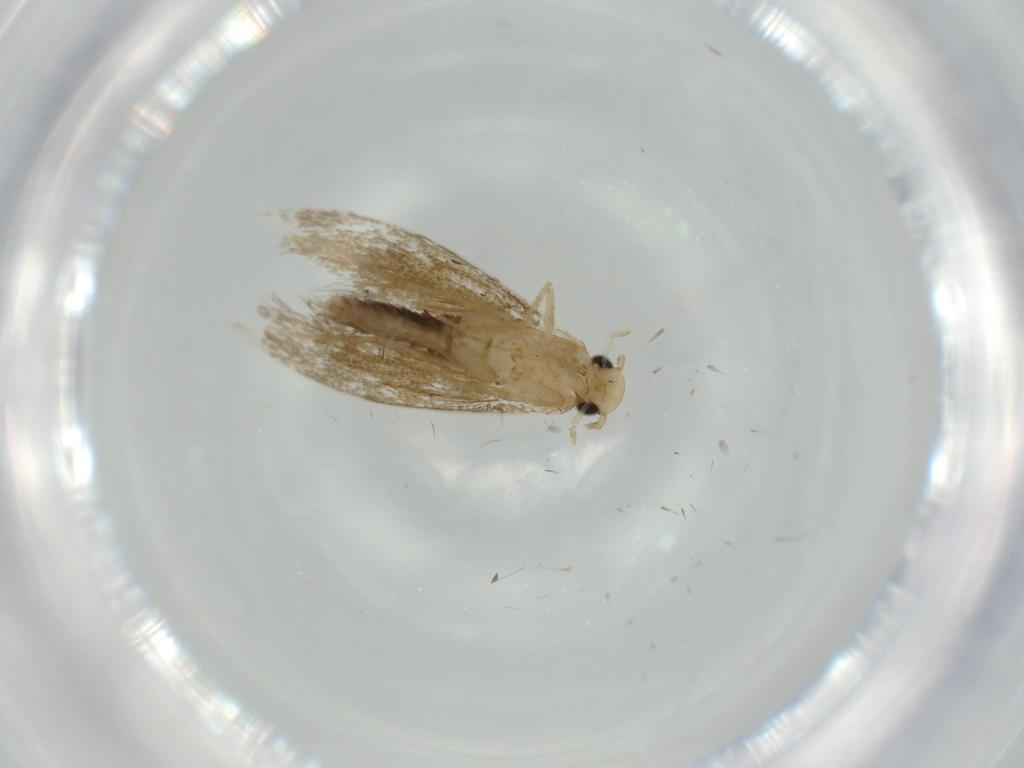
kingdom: Animalia
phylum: Arthropoda
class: Insecta
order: Lepidoptera
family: Tineidae
